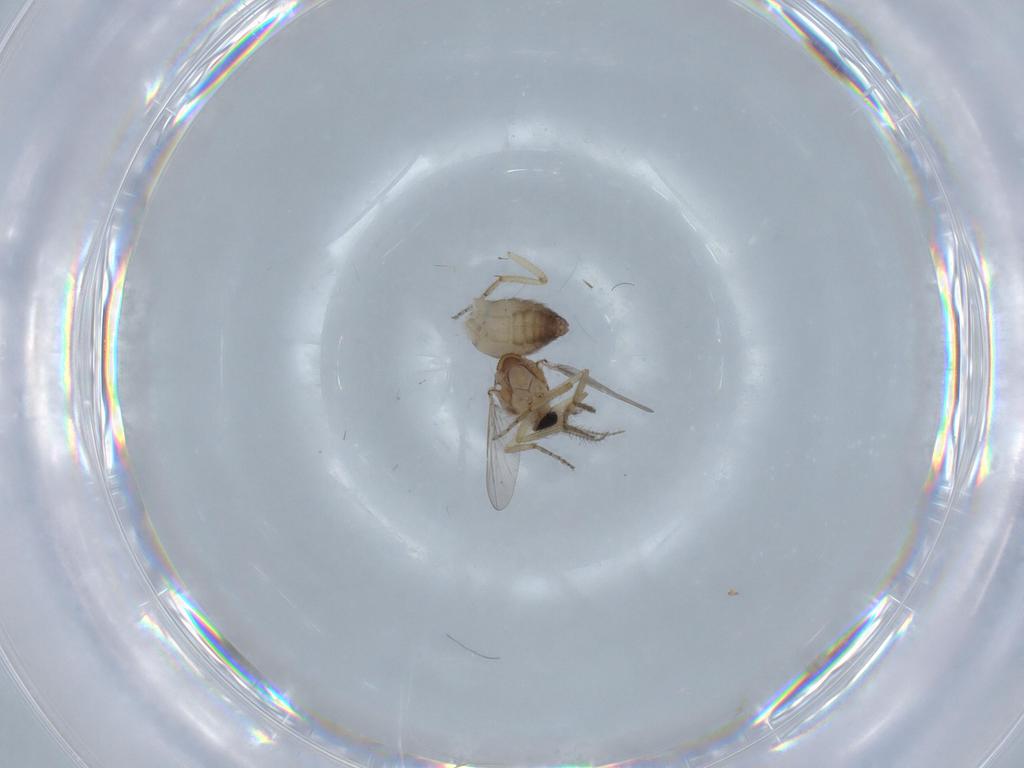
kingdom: Animalia
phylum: Arthropoda
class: Insecta
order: Diptera
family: Ceratopogonidae
